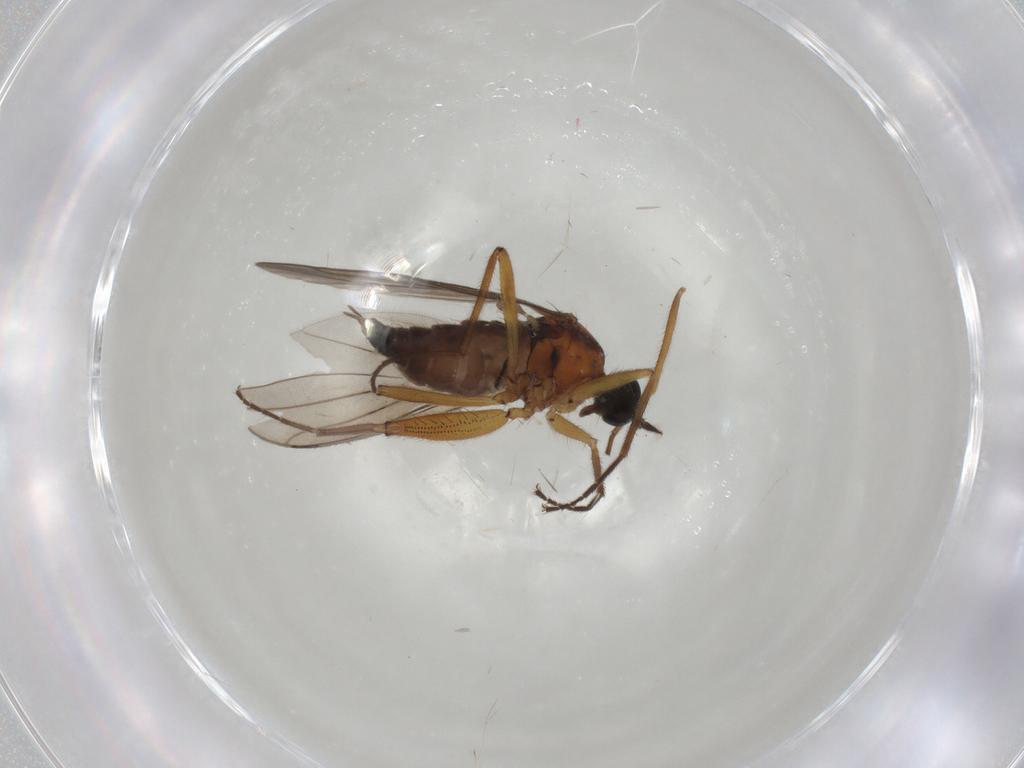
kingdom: Animalia
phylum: Arthropoda
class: Insecta
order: Diptera
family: Hybotidae
